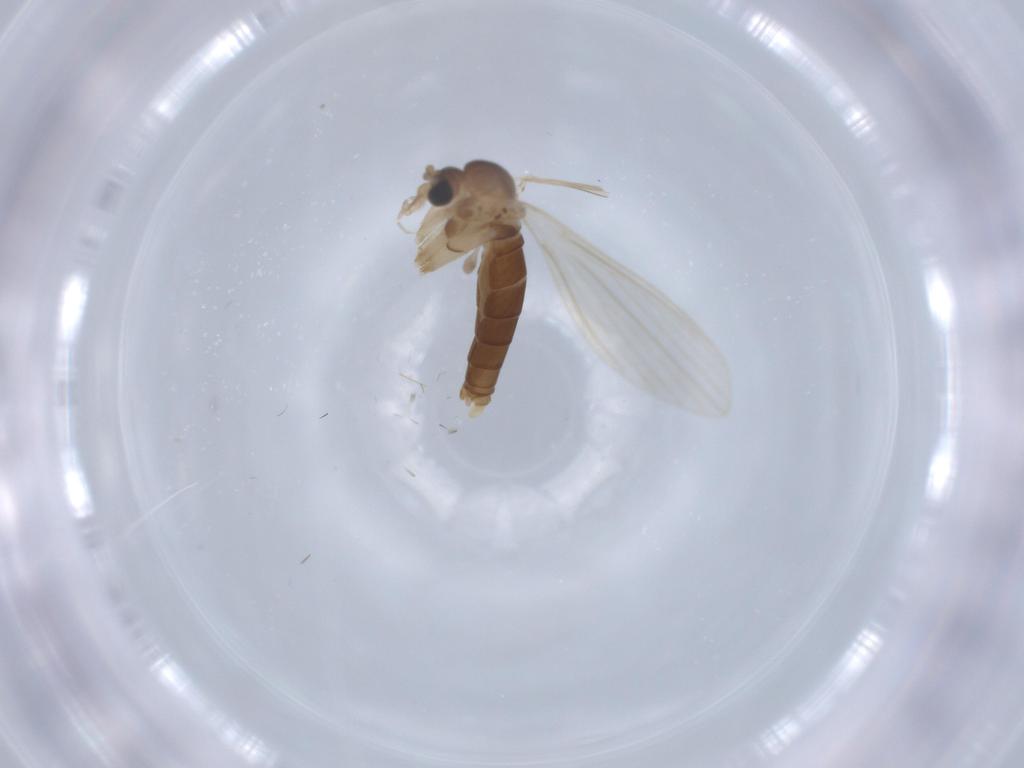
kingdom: Animalia
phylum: Arthropoda
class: Insecta
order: Diptera
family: Psychodidae
